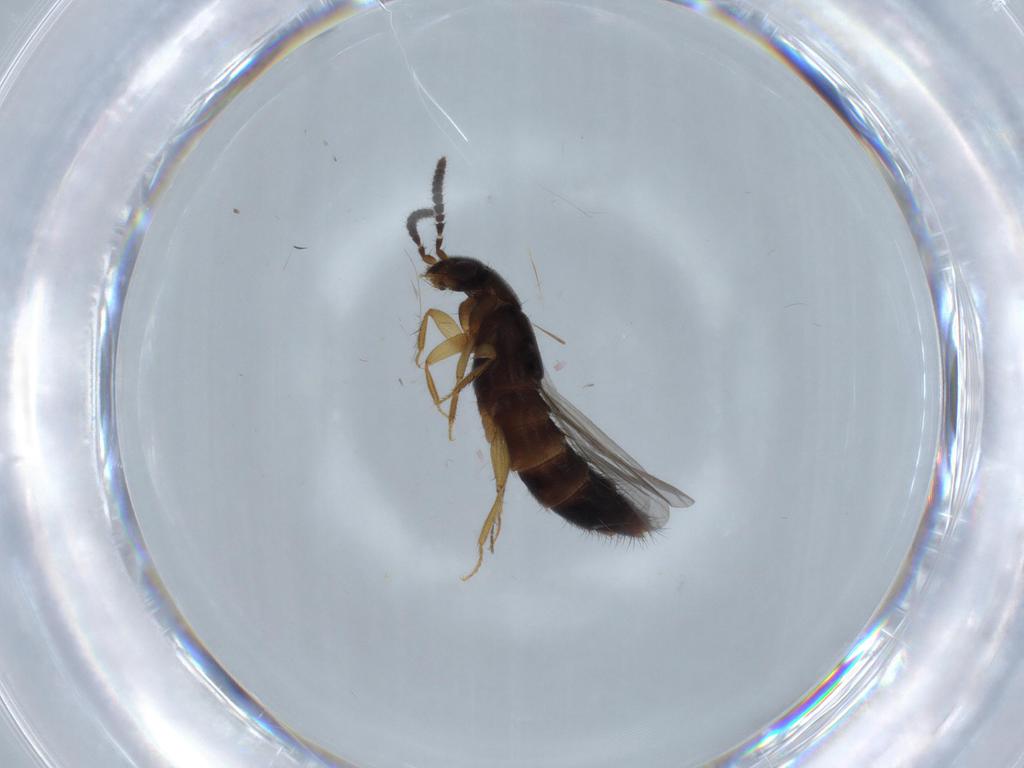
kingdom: Animalia
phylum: Arthropoda
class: Insecta
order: Coleoptera
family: Staphylinidae
